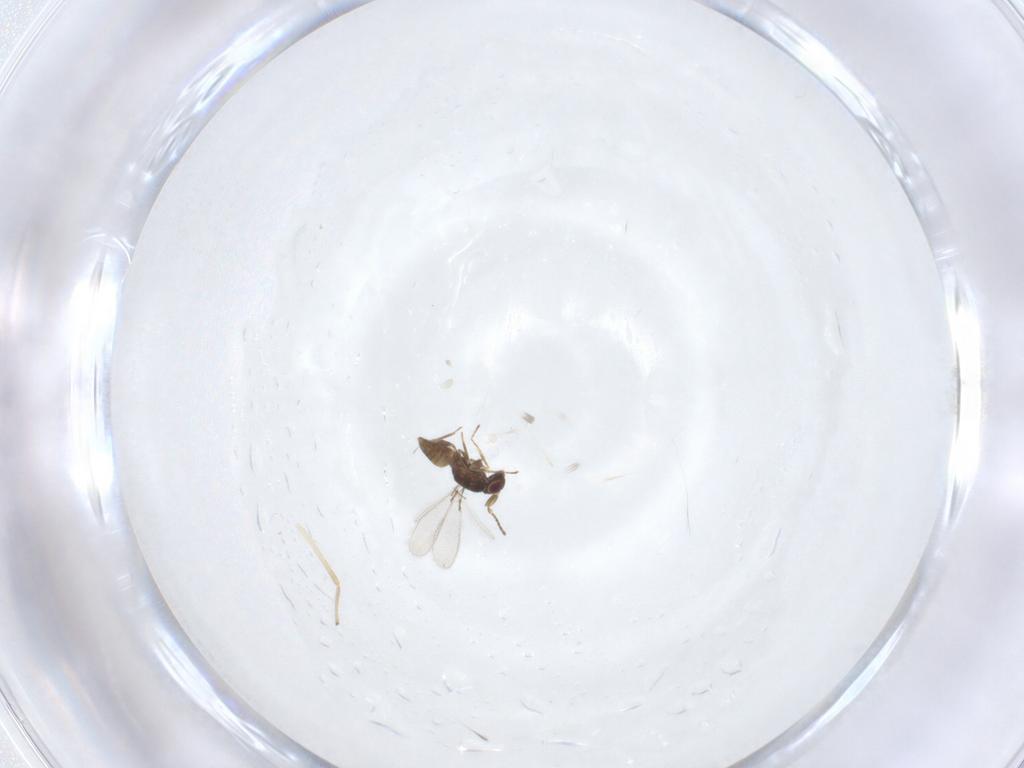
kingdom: Animalia
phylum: Arthropoda
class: Insecta
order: Hymenoptera
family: Mymaridae
